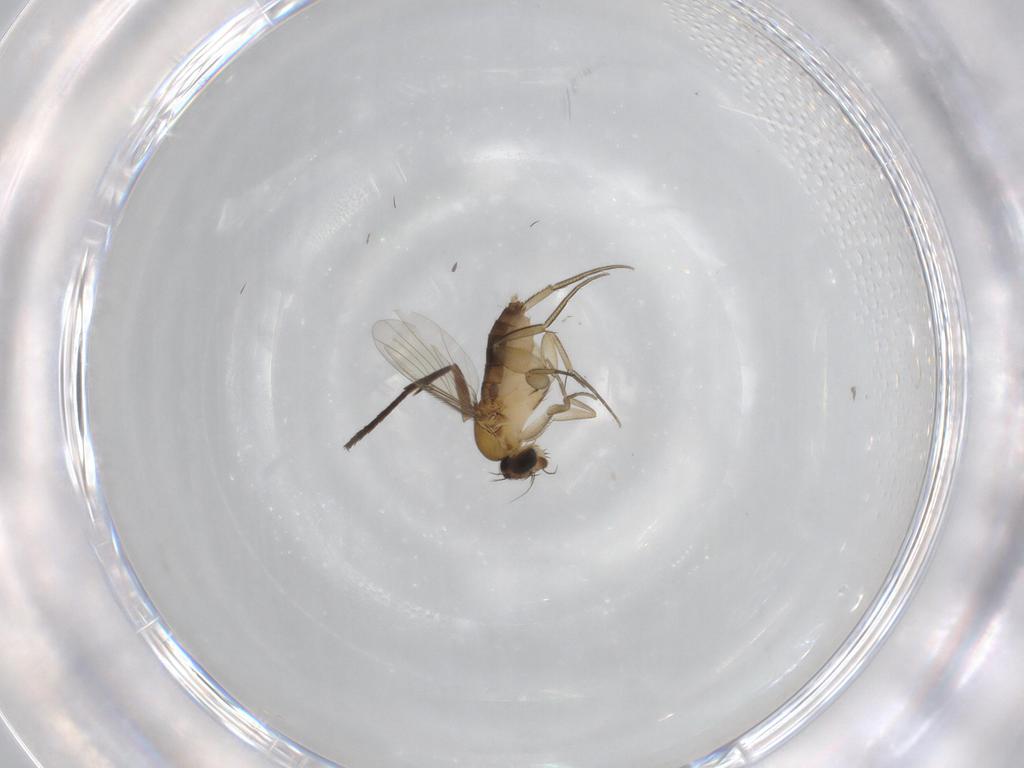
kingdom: Animalia
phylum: Arthropoda
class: Insecta
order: Diptera
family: Phoridae
